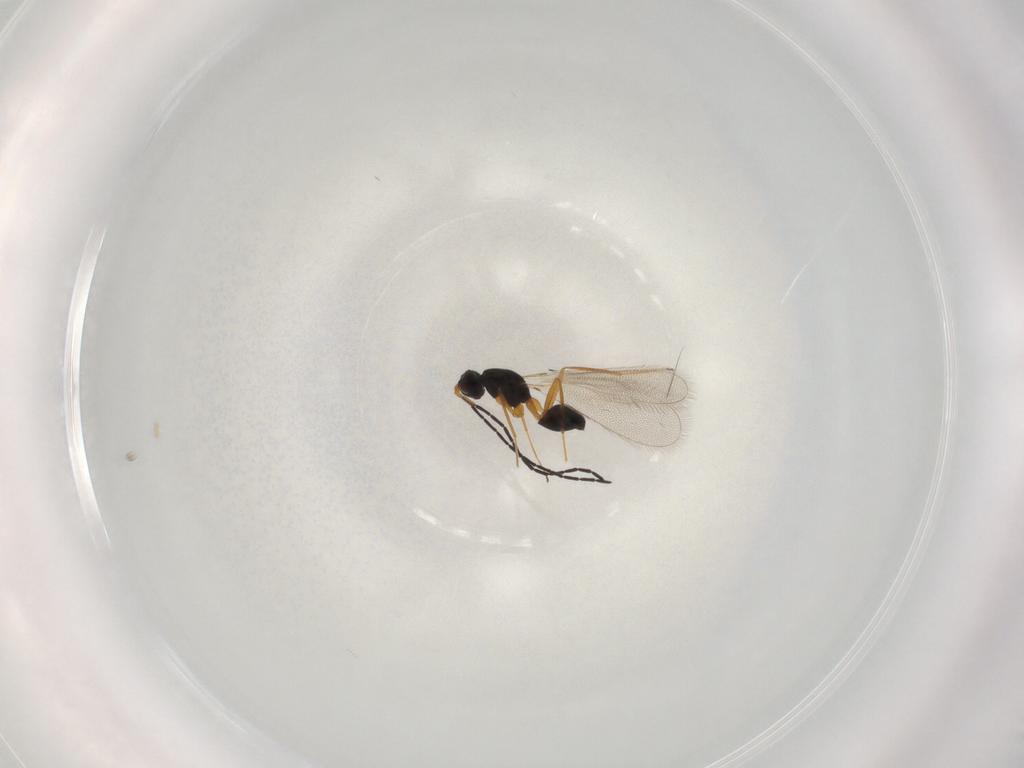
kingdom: Animalia
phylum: Arthropoda
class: Insecta
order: Hymenoptera
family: Mymaridae
